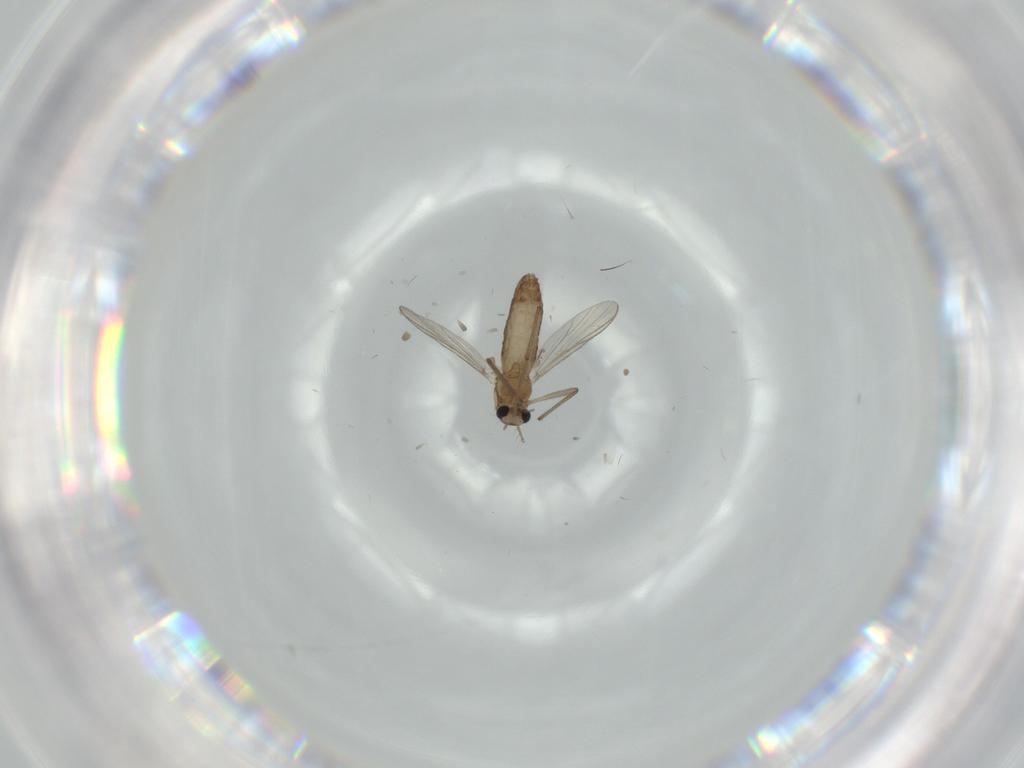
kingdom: Animalia
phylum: Arthropoda
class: Insecta
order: Diptera
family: Chironomidae
